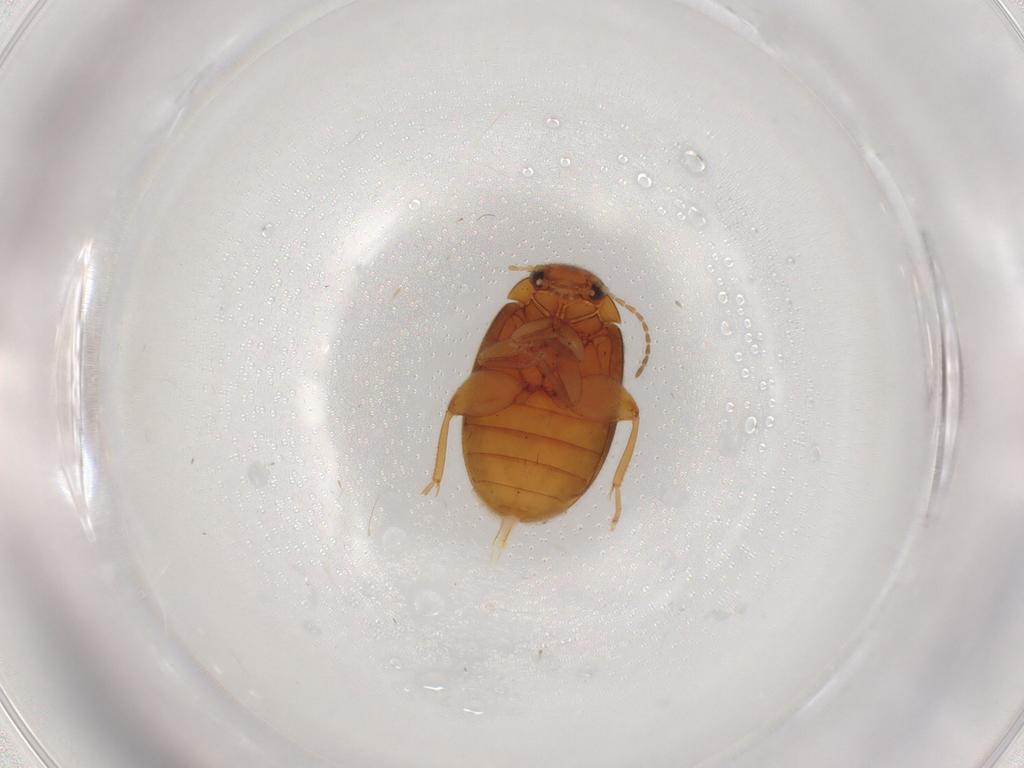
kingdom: Animalia
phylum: Arthropoda
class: Insecta
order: Coleoptera
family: Scirtidae
